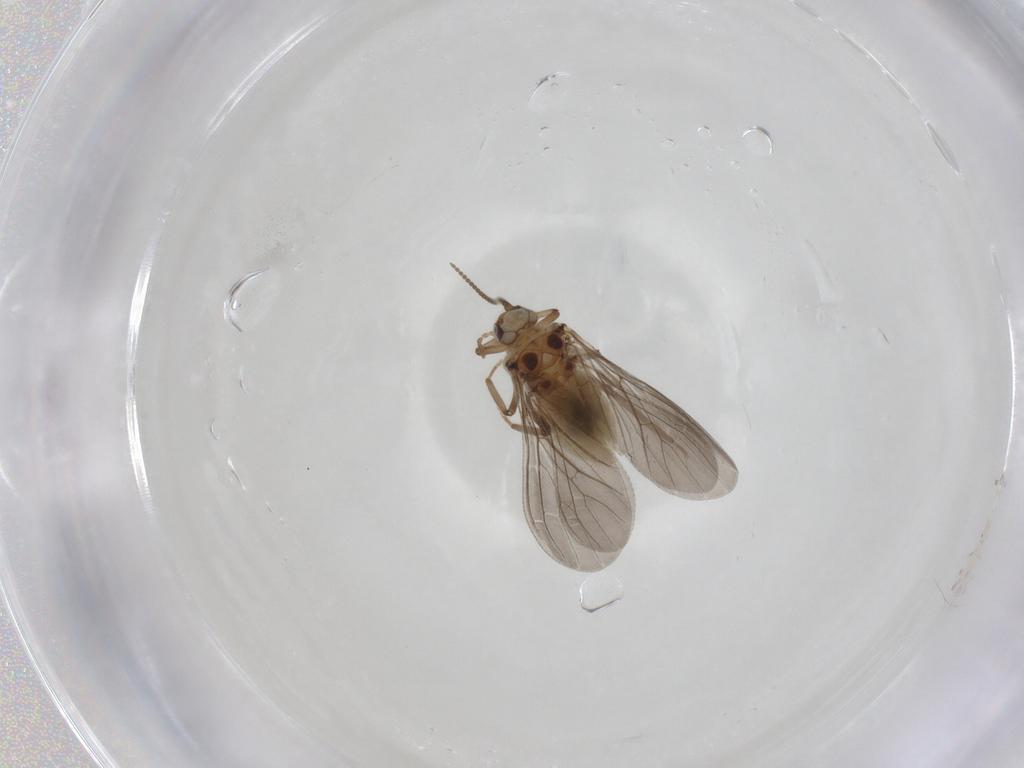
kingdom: Animalia
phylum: Arthropoda
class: Insecta
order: Neuroptera
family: Coniopterygidae
